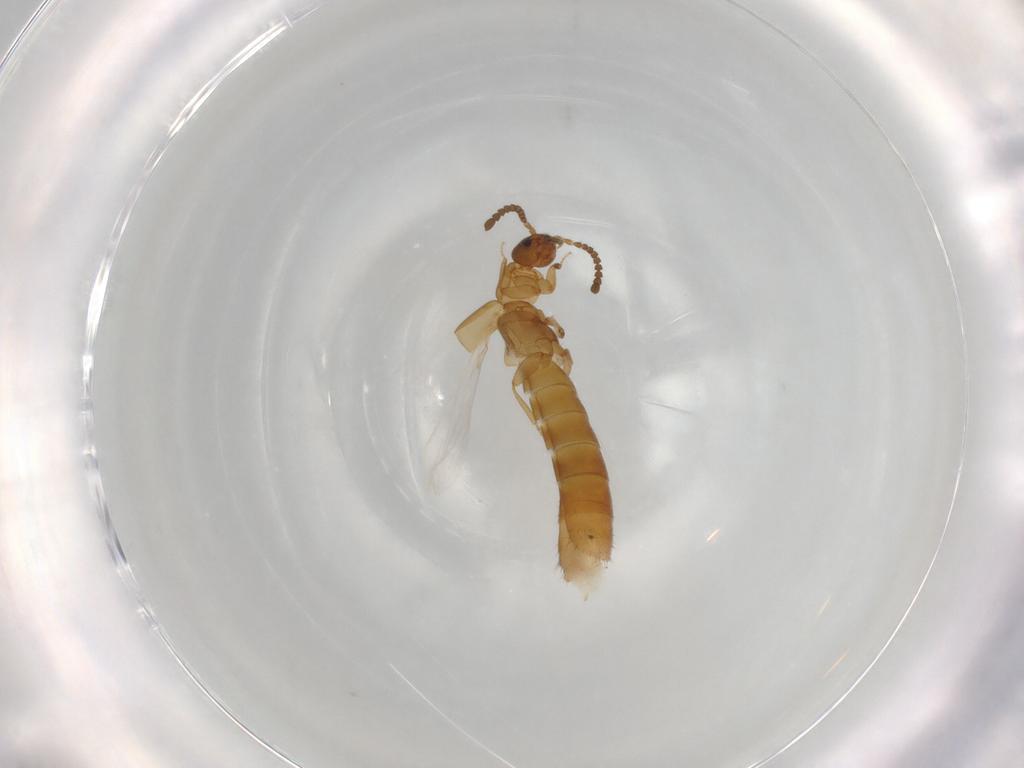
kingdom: Animalia
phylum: Arthropoda
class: Insecta
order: Coleoptera
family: Staphylinidae
